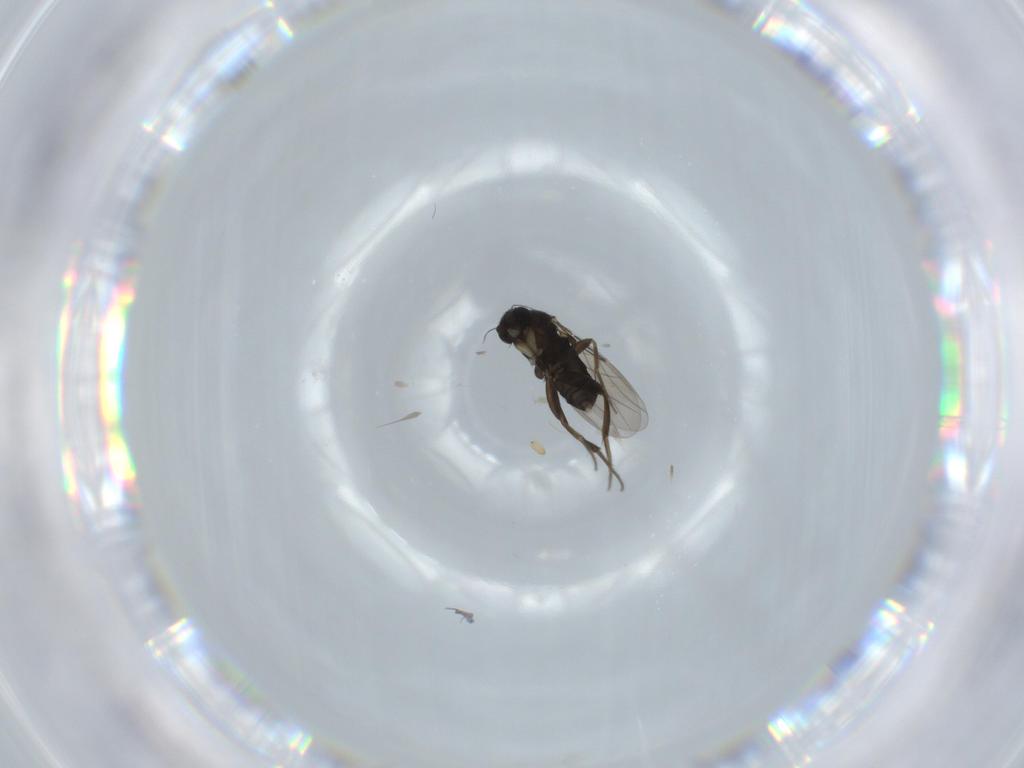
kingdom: Animalia
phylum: Arthropoda
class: Insecta
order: Diptera
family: Phoridae
